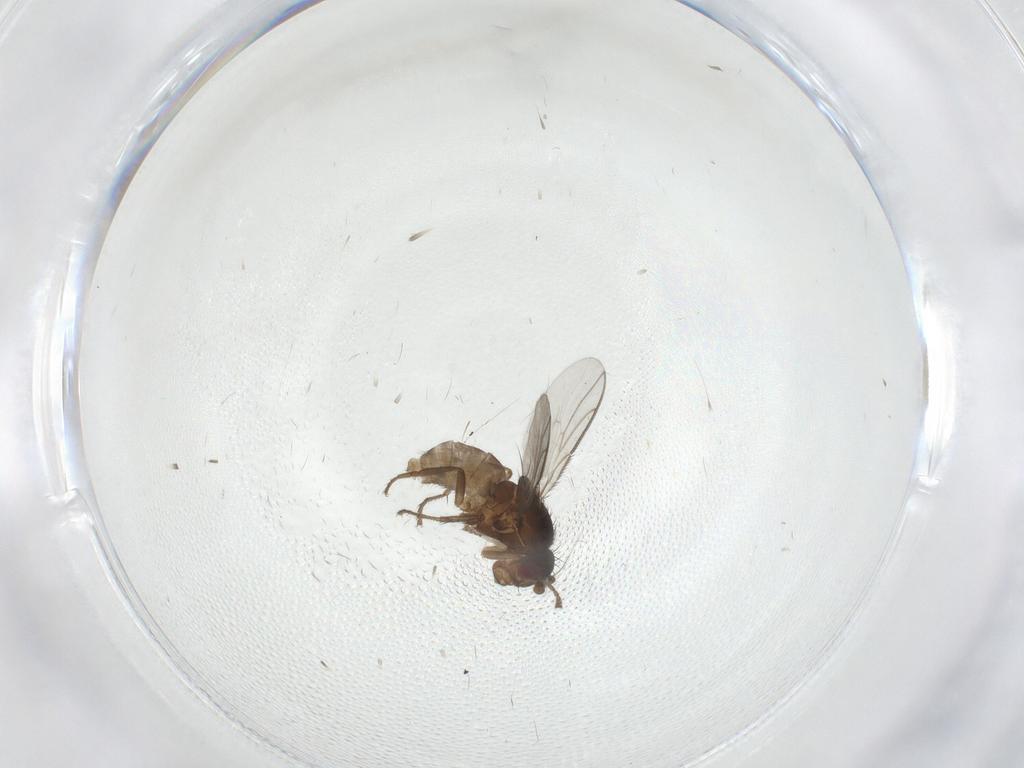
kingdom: Animalia
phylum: Arthropoda
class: Insecta
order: Diptera
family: Sciaridae
